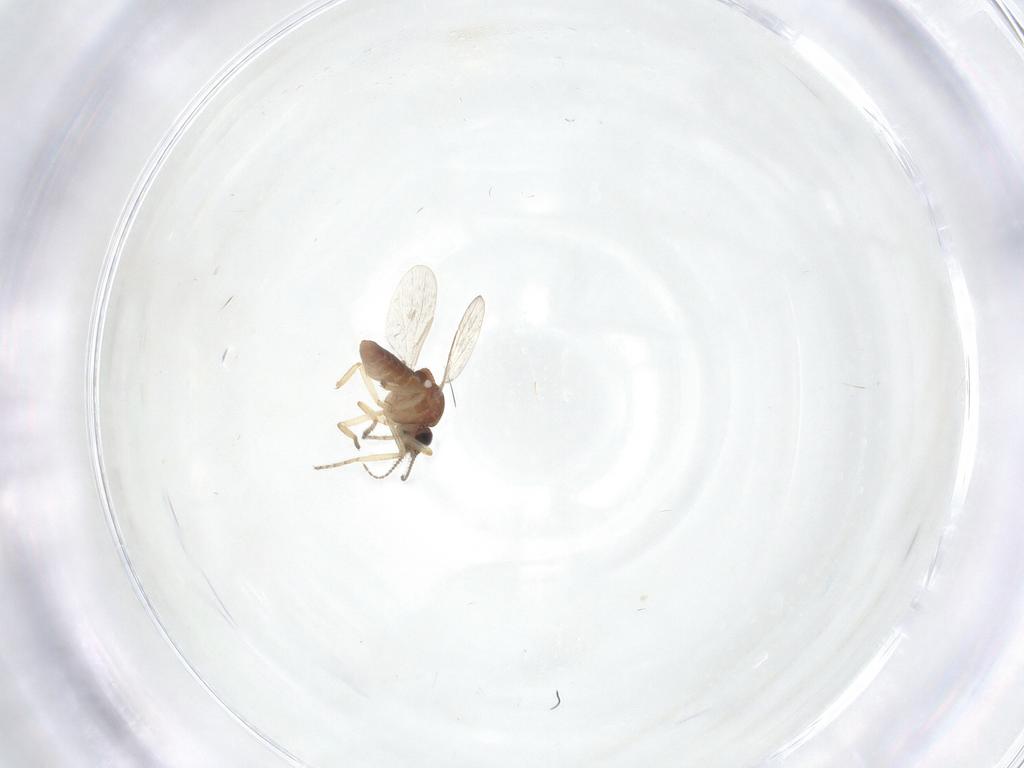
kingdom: Animalia
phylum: Arthropoda
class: Insecta
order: Diptera
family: Ceratopogonidae
